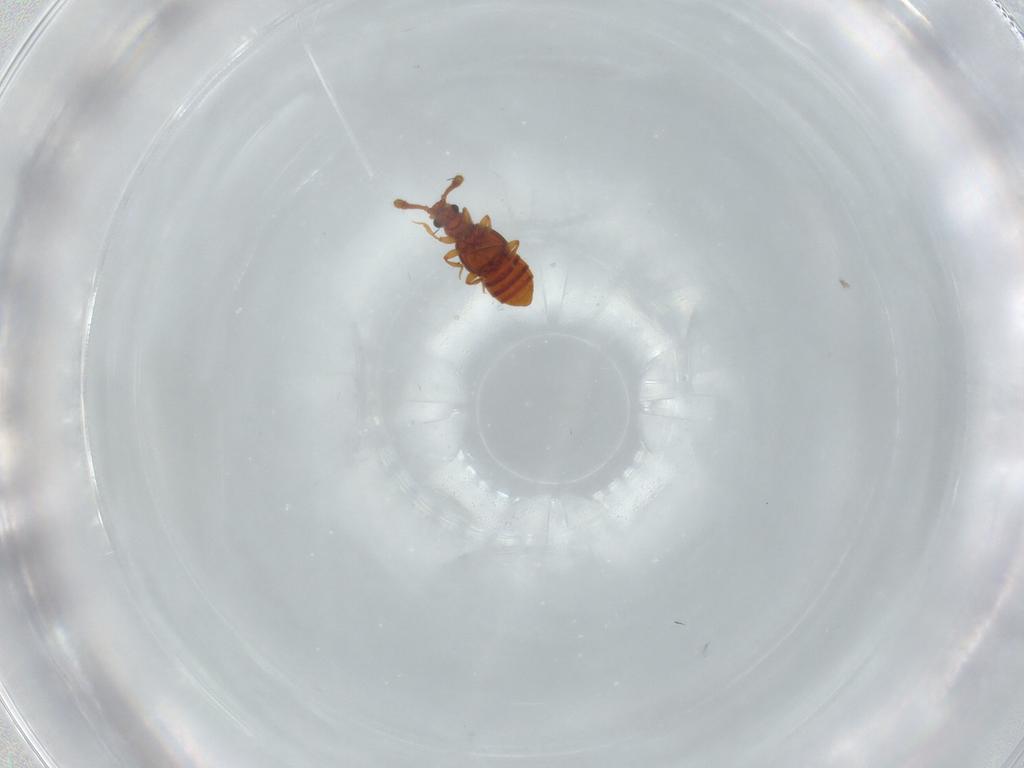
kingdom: Animalia
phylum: Arthropoda
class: Insecta
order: Coleoptera
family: Staphylinidae
